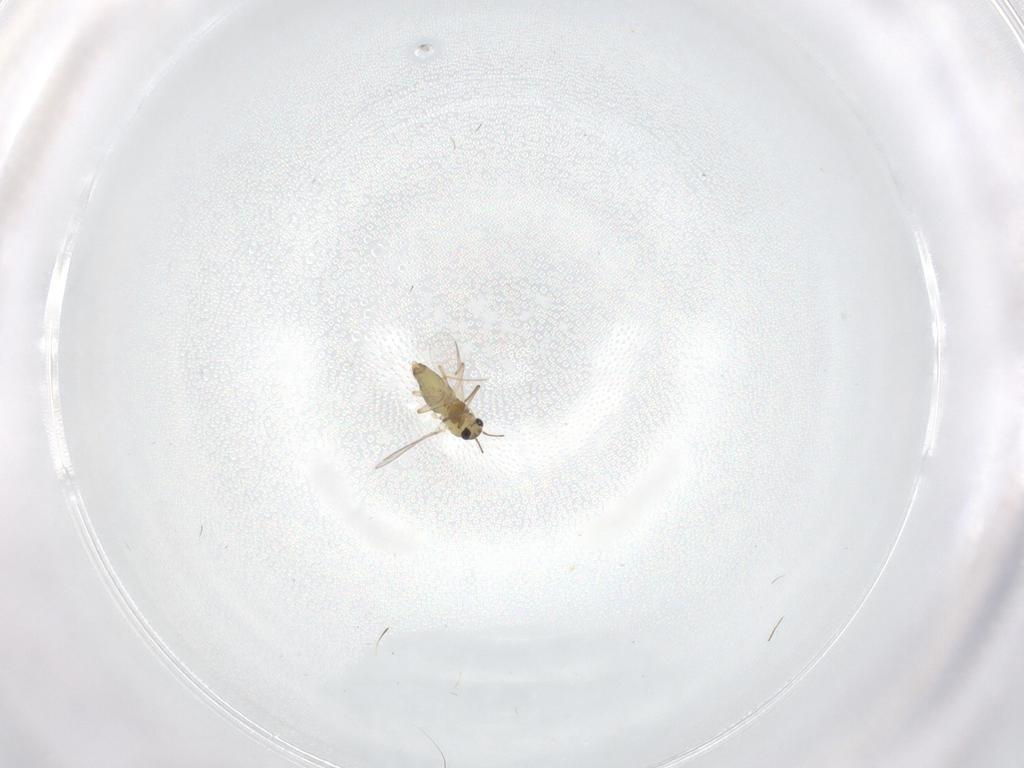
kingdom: Animalia
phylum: Arthropoda
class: Insecta
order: Diptera
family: Chironomidae
